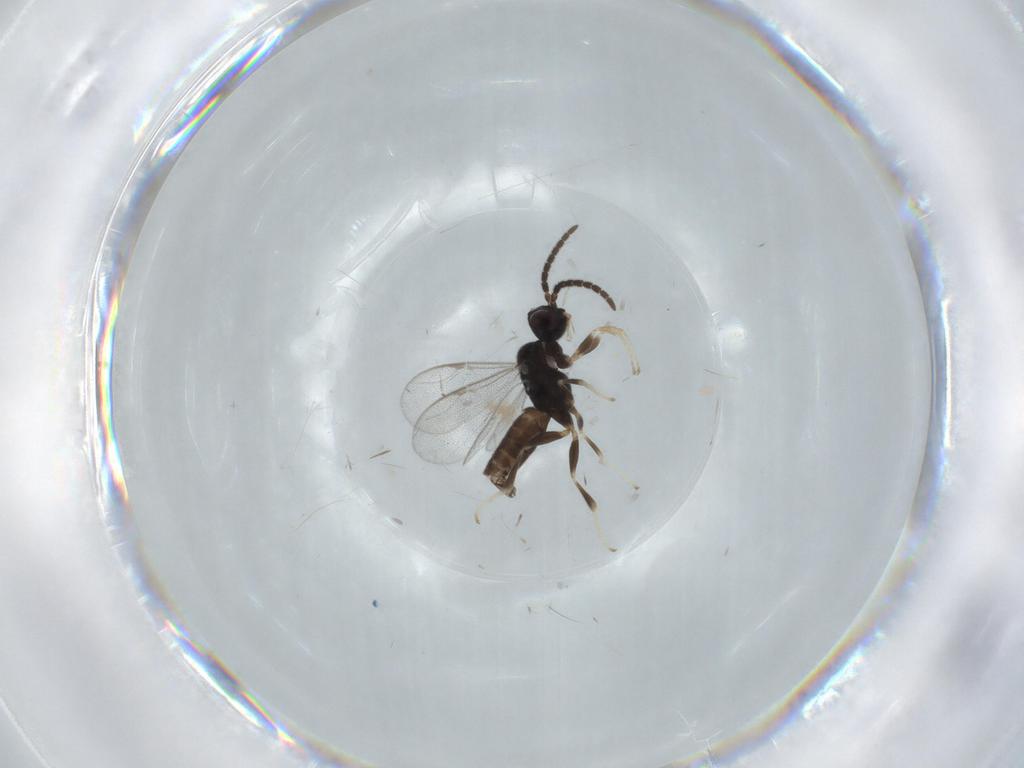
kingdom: Animalia
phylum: Arthropoda
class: Insecta
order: Hymenoptera
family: Dryinidae
